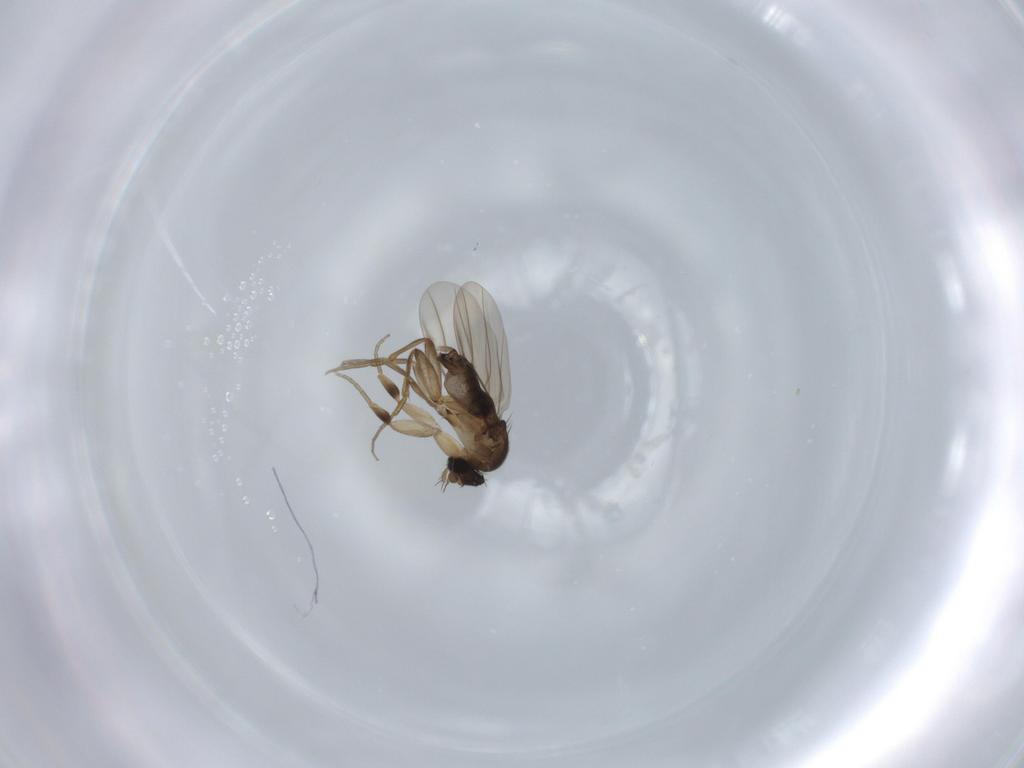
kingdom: Animalia
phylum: Arthropoda
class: Insecta
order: Diptera
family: Phoridae
